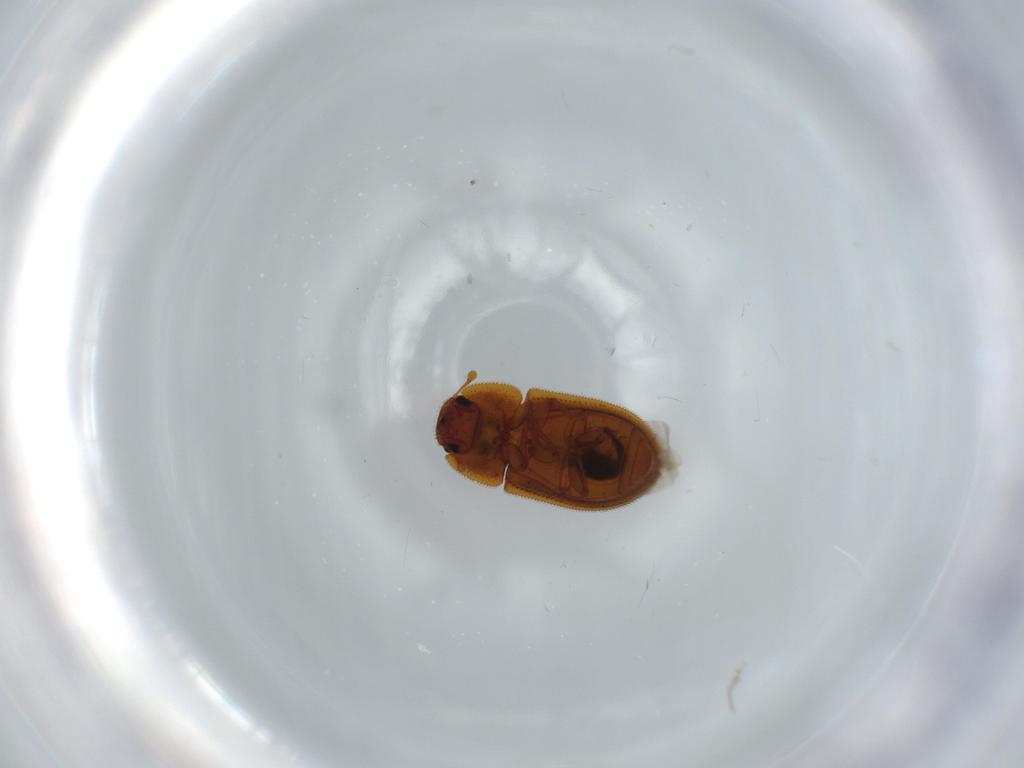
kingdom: Animalia
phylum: Arthropoda
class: Insecta
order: Coleoptera
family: Zopheridae
